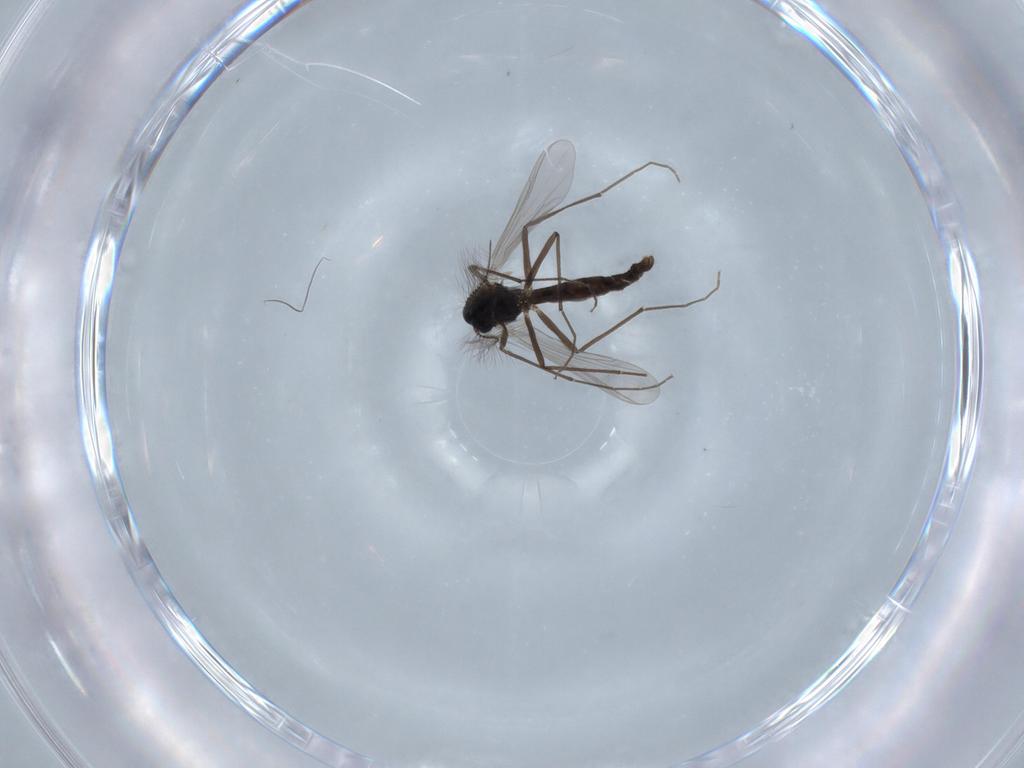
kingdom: Animalia
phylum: Arthropoda
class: Insecta
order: Diptera
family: Chironomidae
